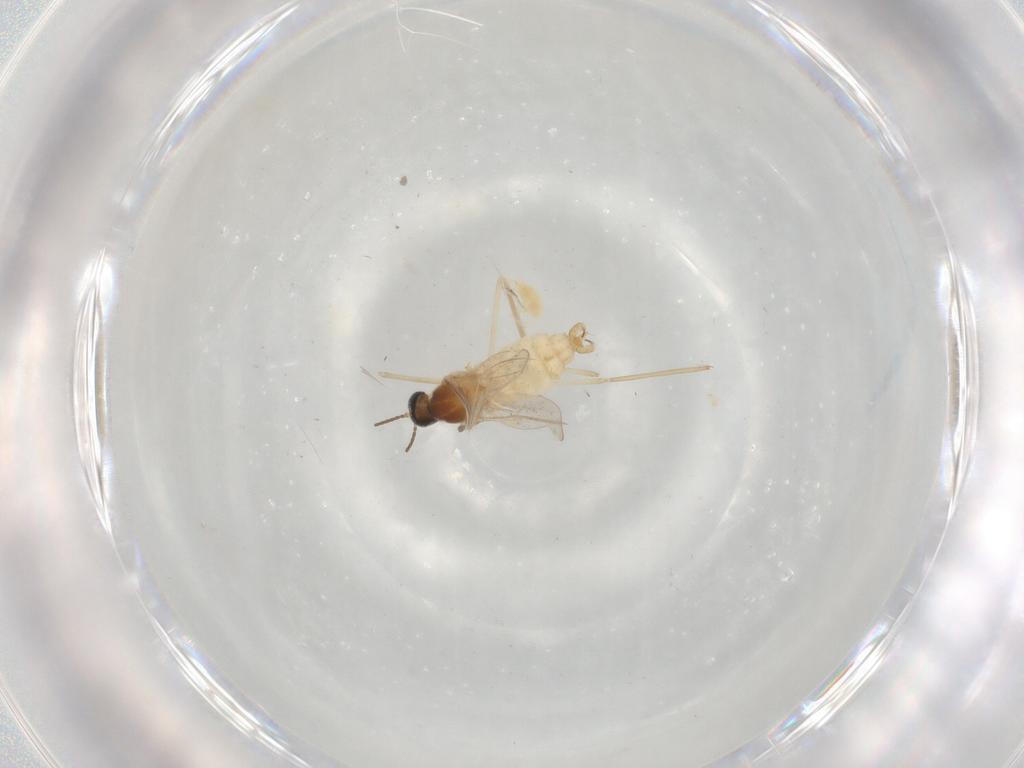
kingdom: Animalia
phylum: Arthropoda
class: Insecta
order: Diptera
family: Cecidomyiidae
